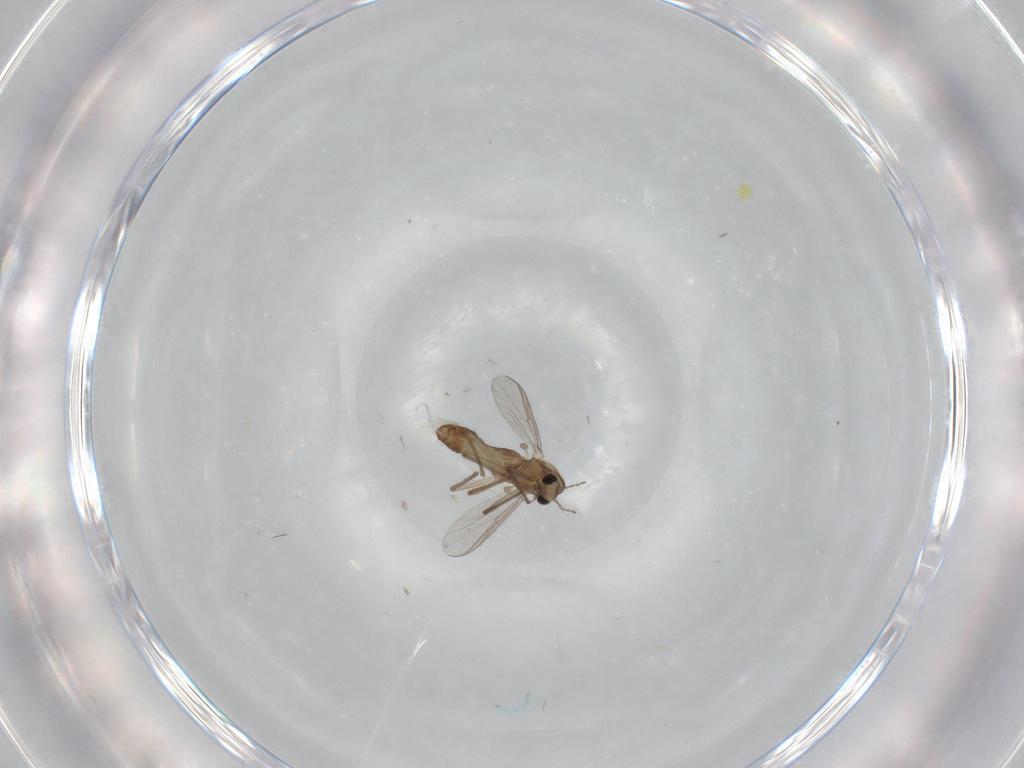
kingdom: Animalia
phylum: Arthropoda
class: Insecta
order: Diptera
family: Chironomidae
